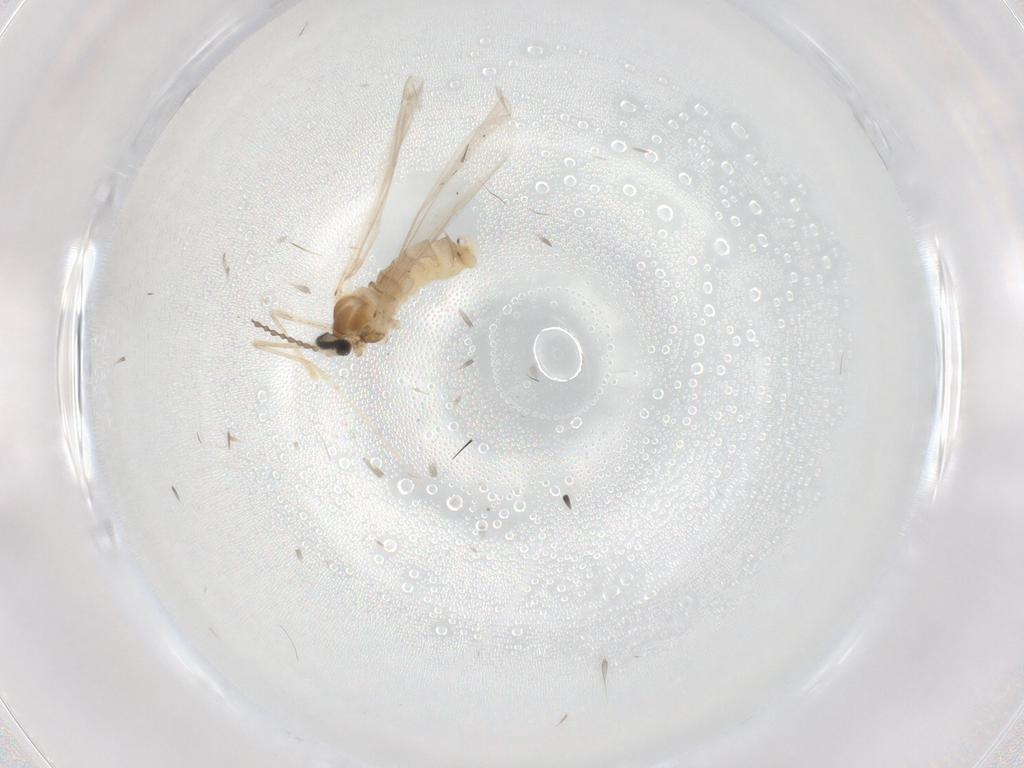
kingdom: Animalia
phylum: Arthropoda
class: Insecta
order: Diptera
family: Cecidomyiidae
